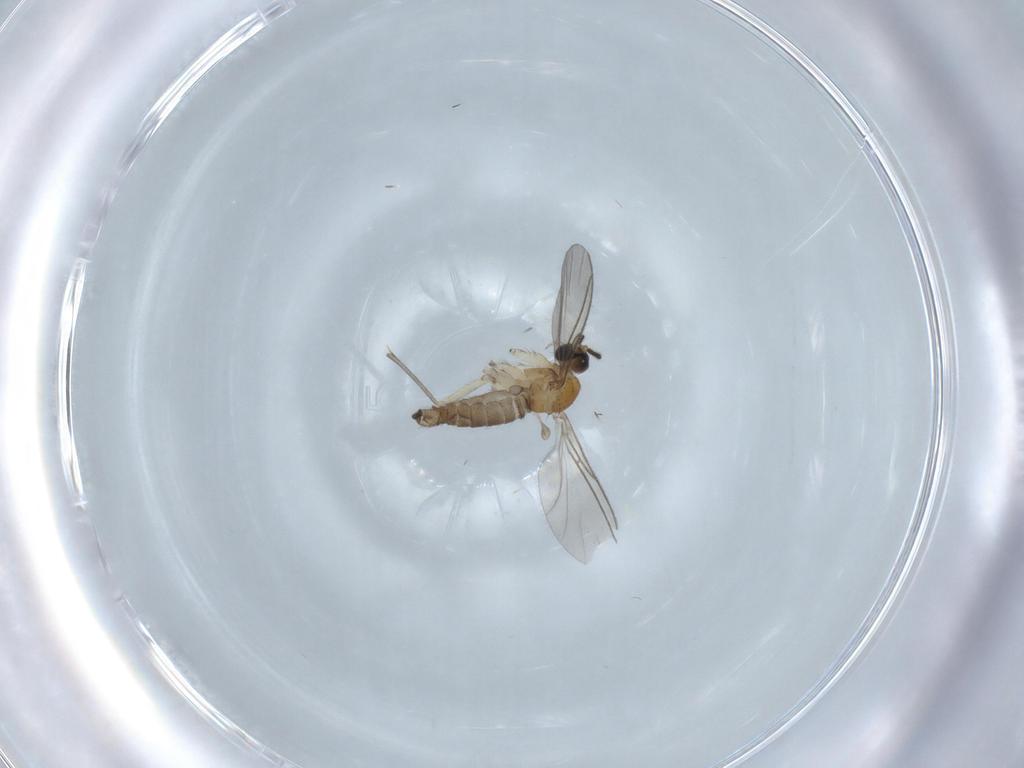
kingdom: Animalia
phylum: Arthropoda
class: Insecta
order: Diptera
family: Sciaridae
